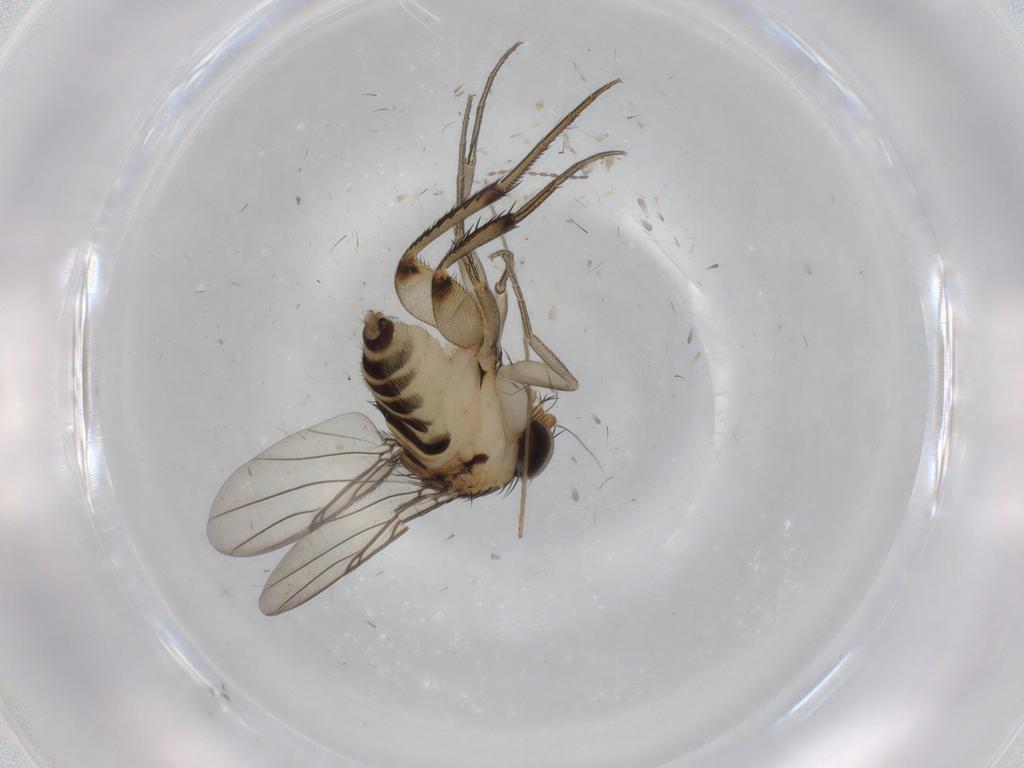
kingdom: Animalia
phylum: Arthropoda
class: Insecta
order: Diptera
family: Chironomidae
